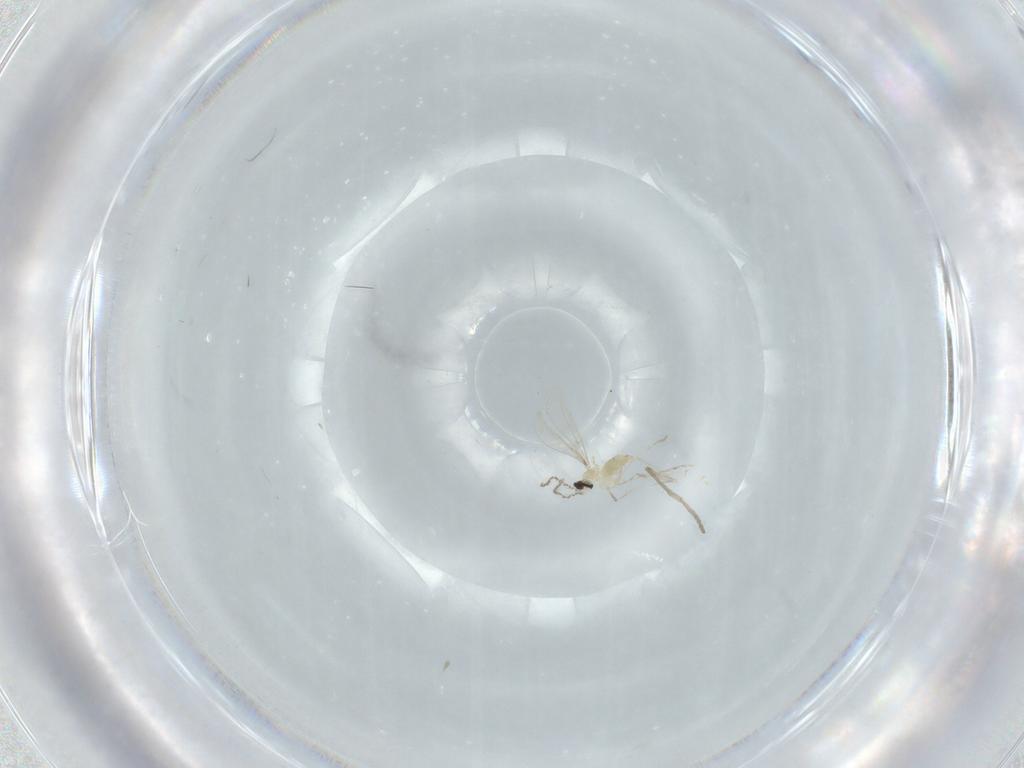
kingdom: Animalia
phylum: Arthropoda
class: Insecta
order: Diptera
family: Cecidomyiidae
